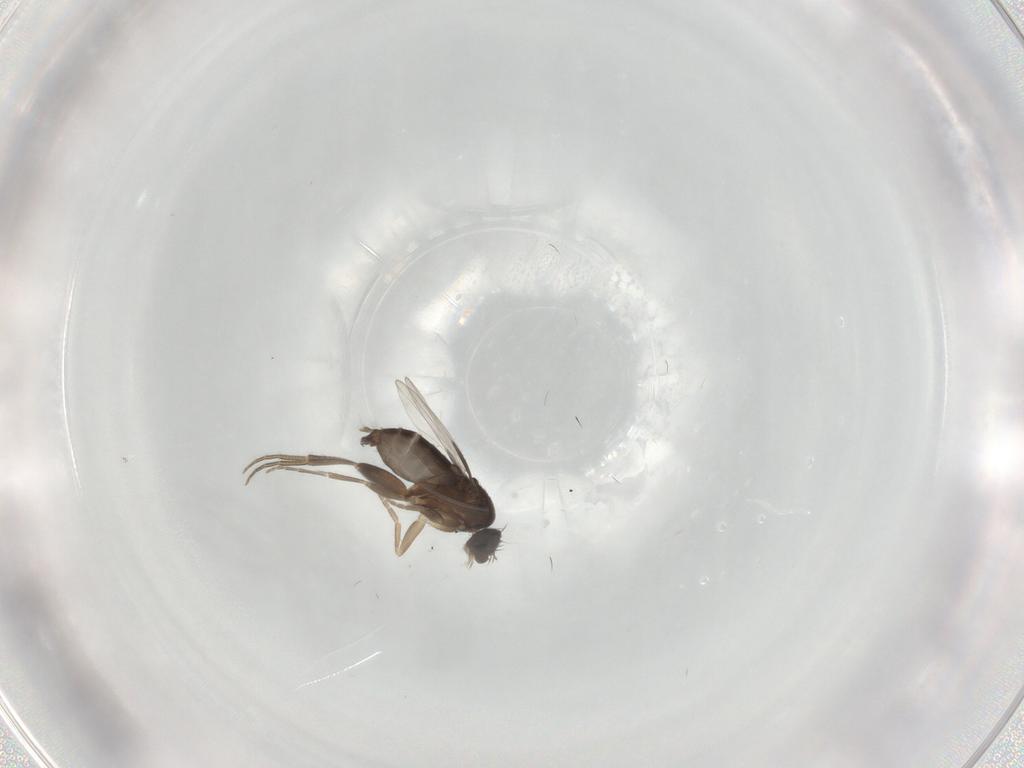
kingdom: Animalia
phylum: Arthropoda
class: Insecta
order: Diptera
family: Phoridae
